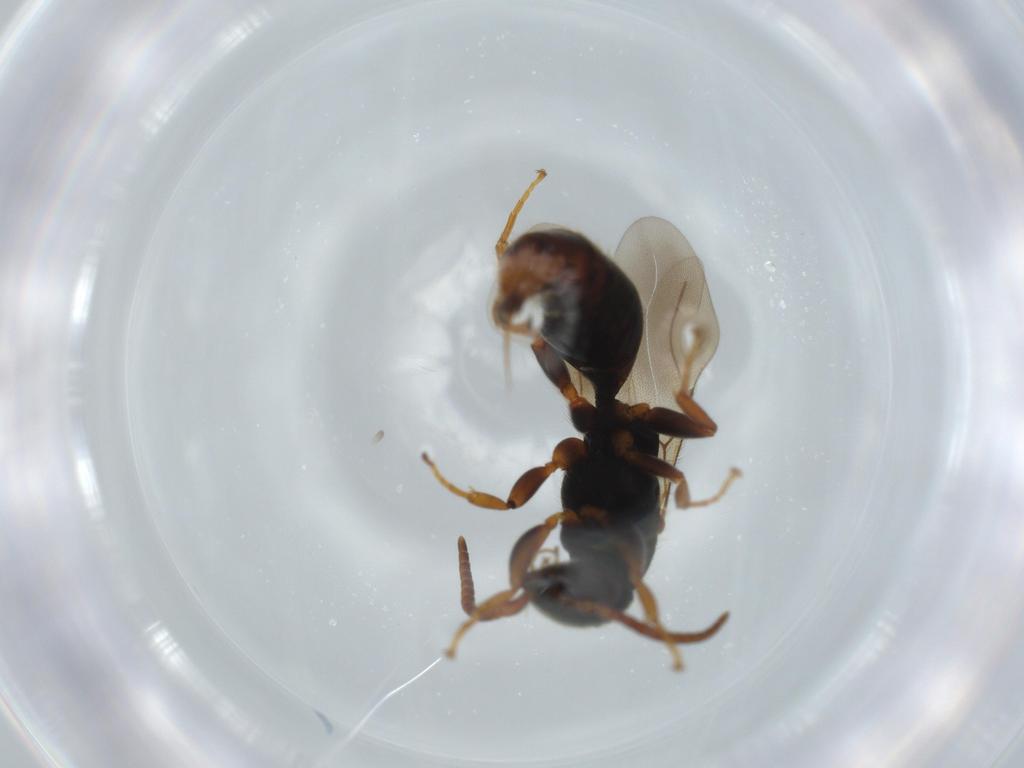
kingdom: Animalia
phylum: Arthropoda
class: Insecta
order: Hymenoptera
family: Bethylidae
